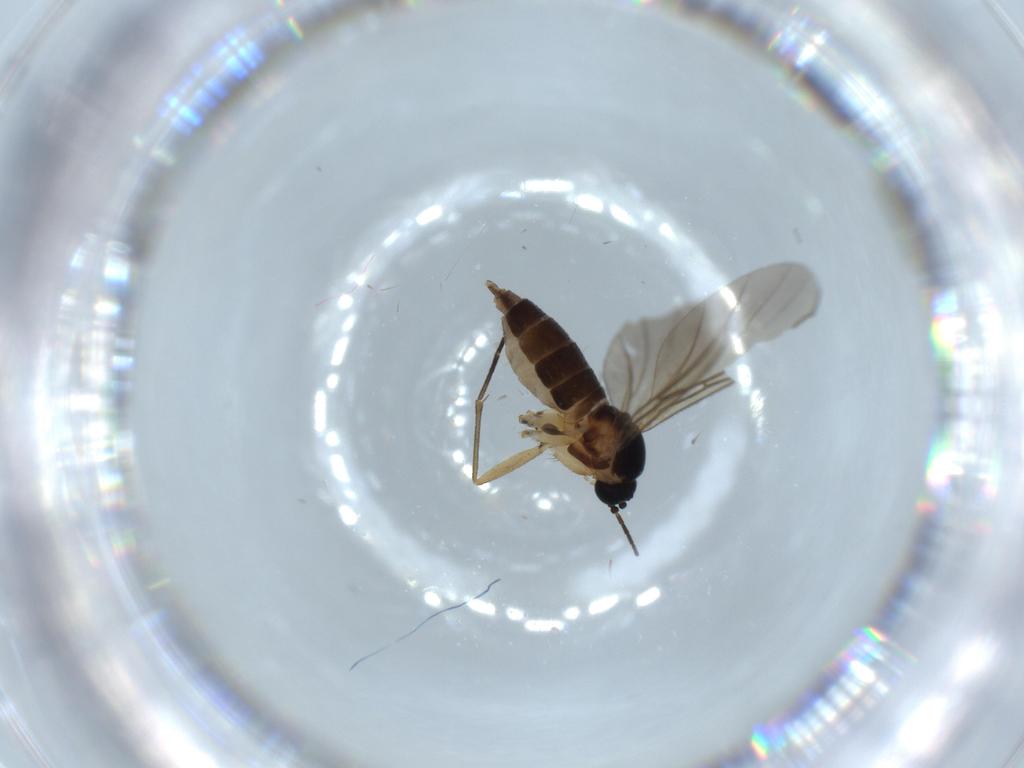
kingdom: Animalia
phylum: Arthropoda
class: Insecta
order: Diptera
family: Sciaridae
